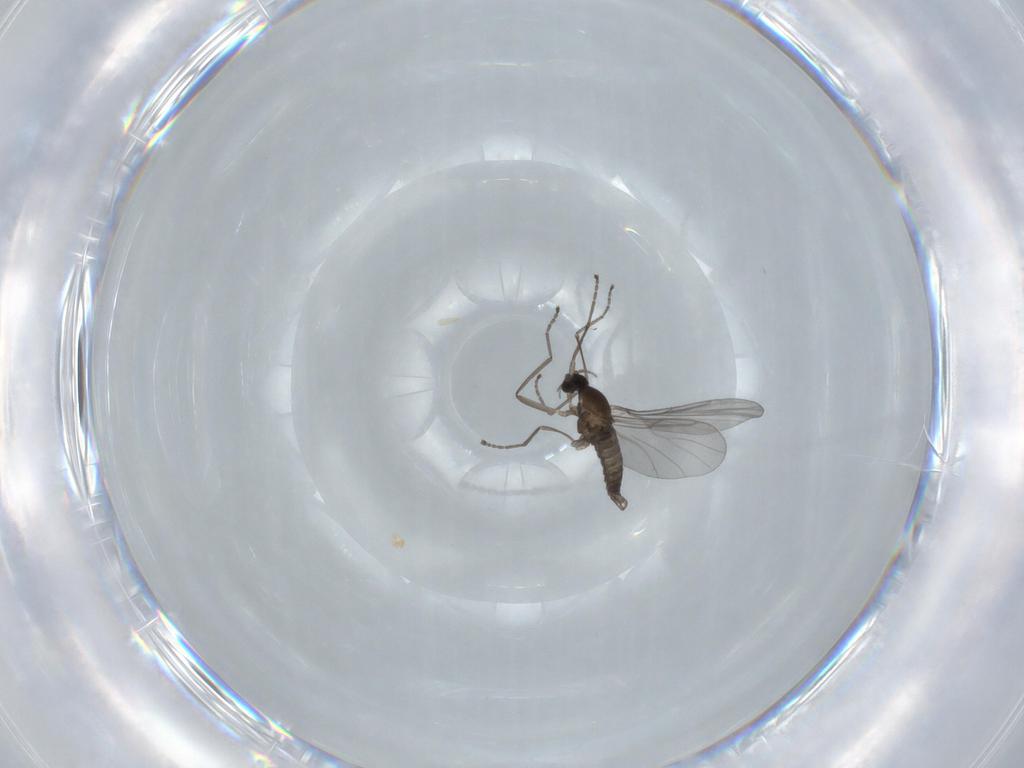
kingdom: Animalia
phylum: Arthropoda
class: Insecta
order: Diptera
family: Cecidomyiidae
